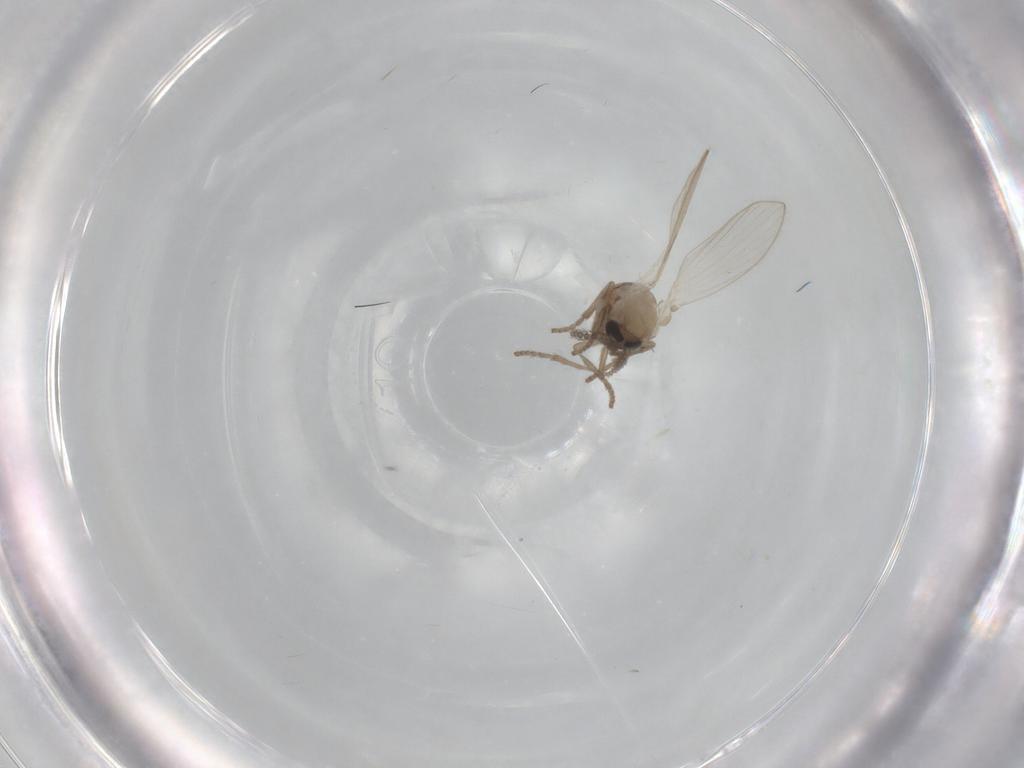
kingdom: Animalia
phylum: Arthropoda
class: Insecta
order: Diptera
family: Psychodidae
